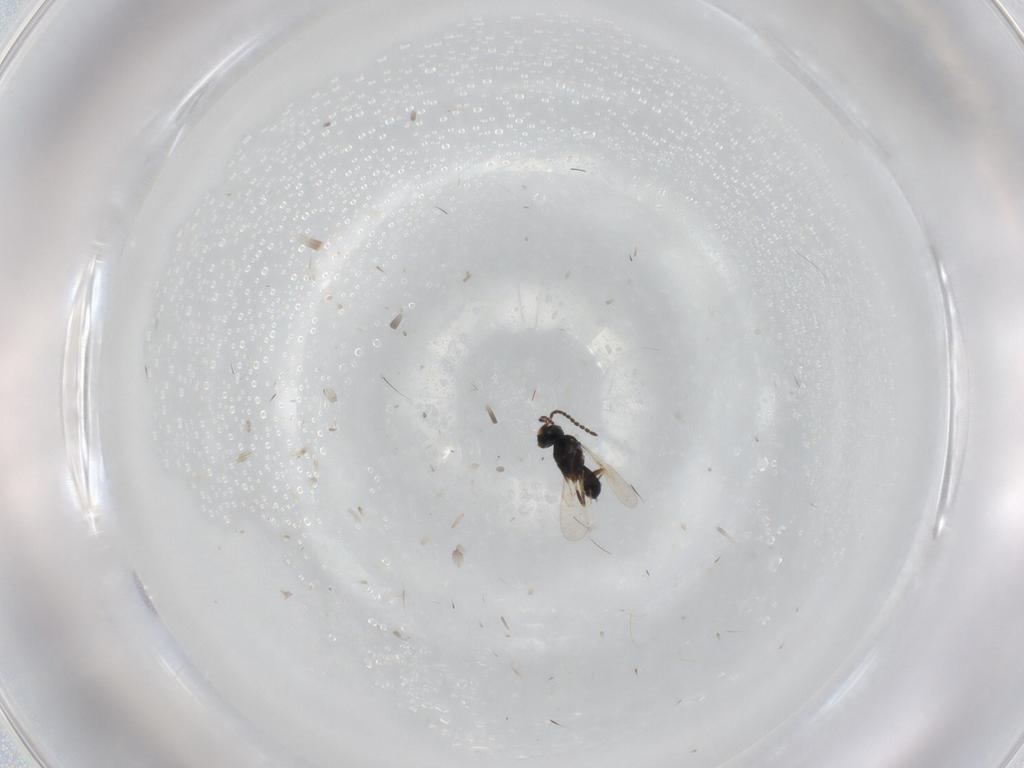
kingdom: Animalia
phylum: Arthropoda
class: Insecta
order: Hymenoptera
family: Scelionidae
